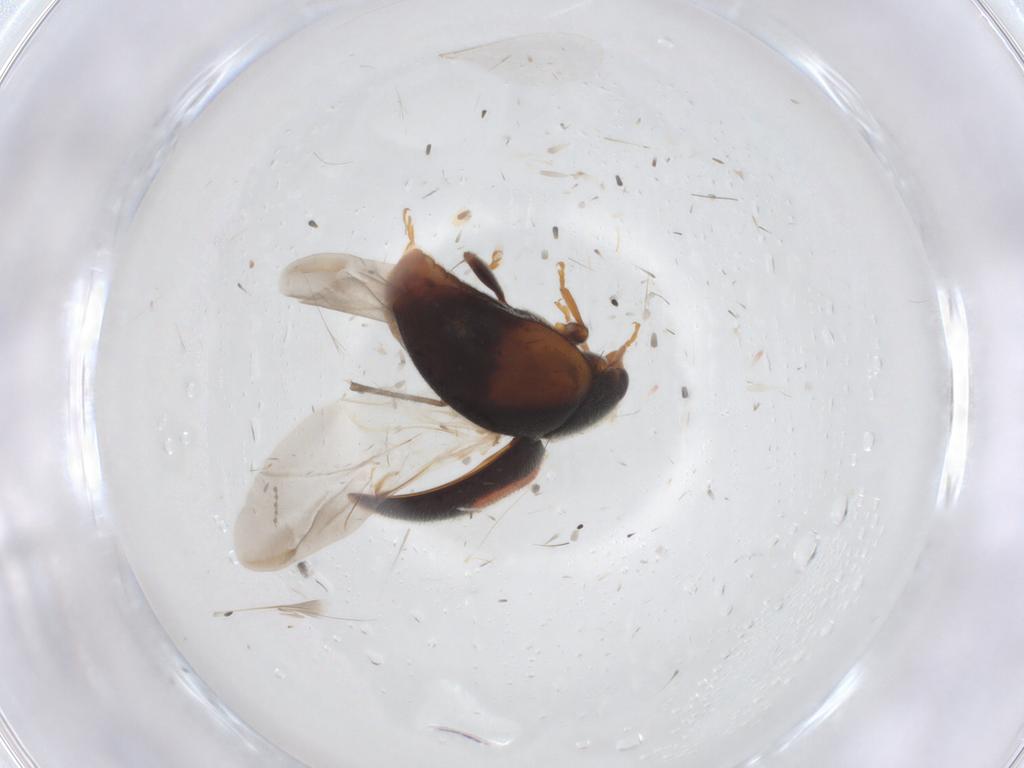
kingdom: Animalia
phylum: Arthropoda
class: Insecta
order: Coleoptera
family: Coccinellidae
